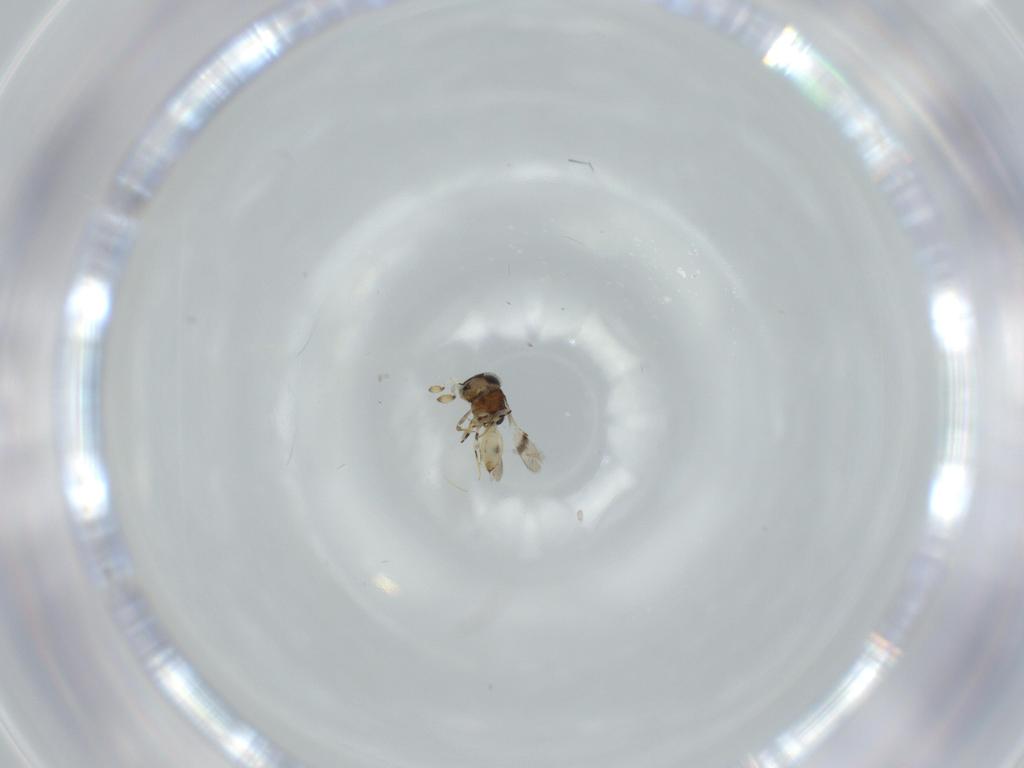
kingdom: Animalia
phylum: Arthropoda
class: Insecta
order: Hymenoptera
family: Scelionidae
